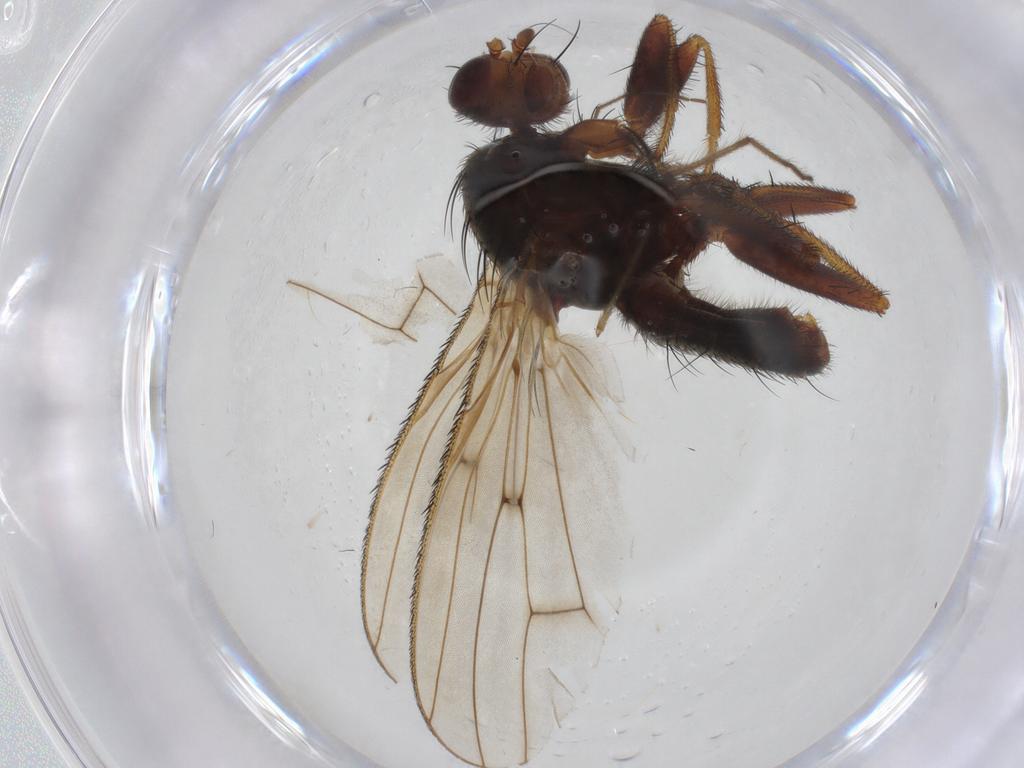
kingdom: Animalia
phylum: Arthropoda
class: Insecta
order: Diptera
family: Heleomyzidae
